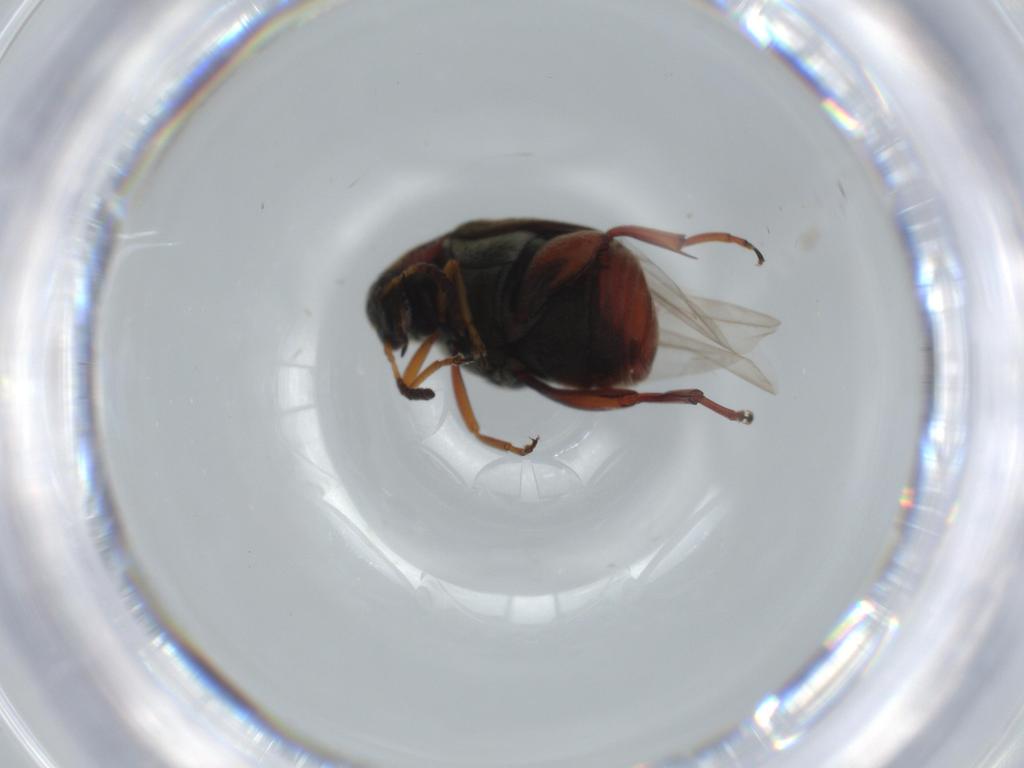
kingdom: Animalia
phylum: Arthropoda
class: Insecta
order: Coleoptera
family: Chrysomelidae
